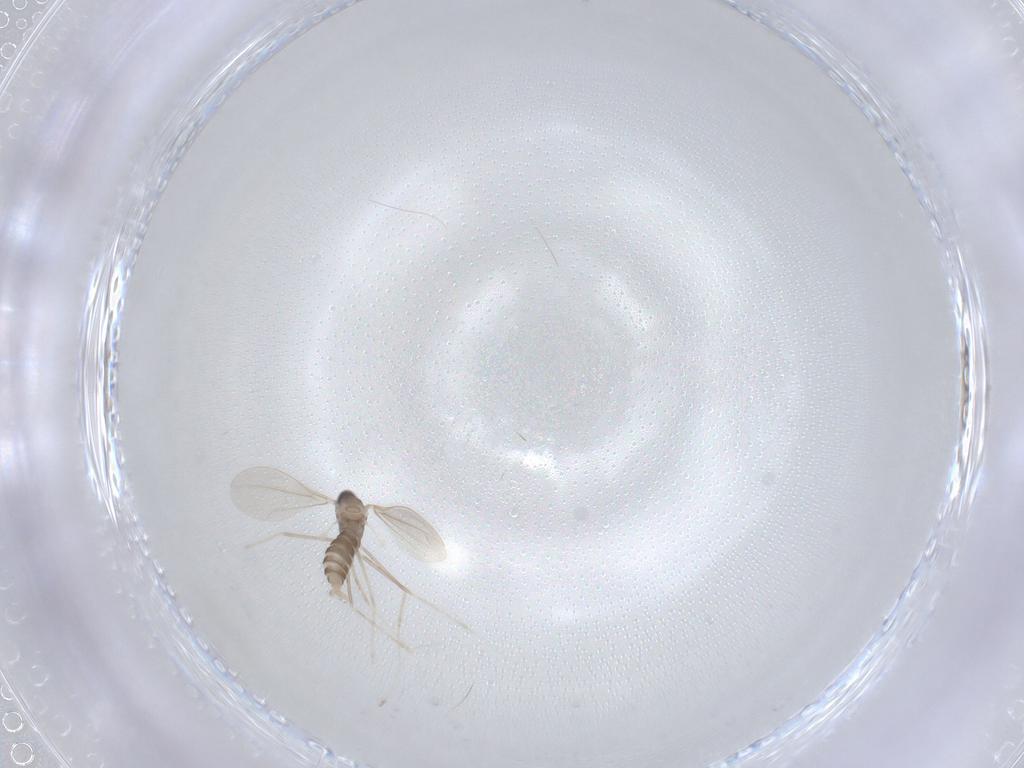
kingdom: Animalia
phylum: Arthropoda
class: Insecta
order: Diptera
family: Cecidomyiidae
